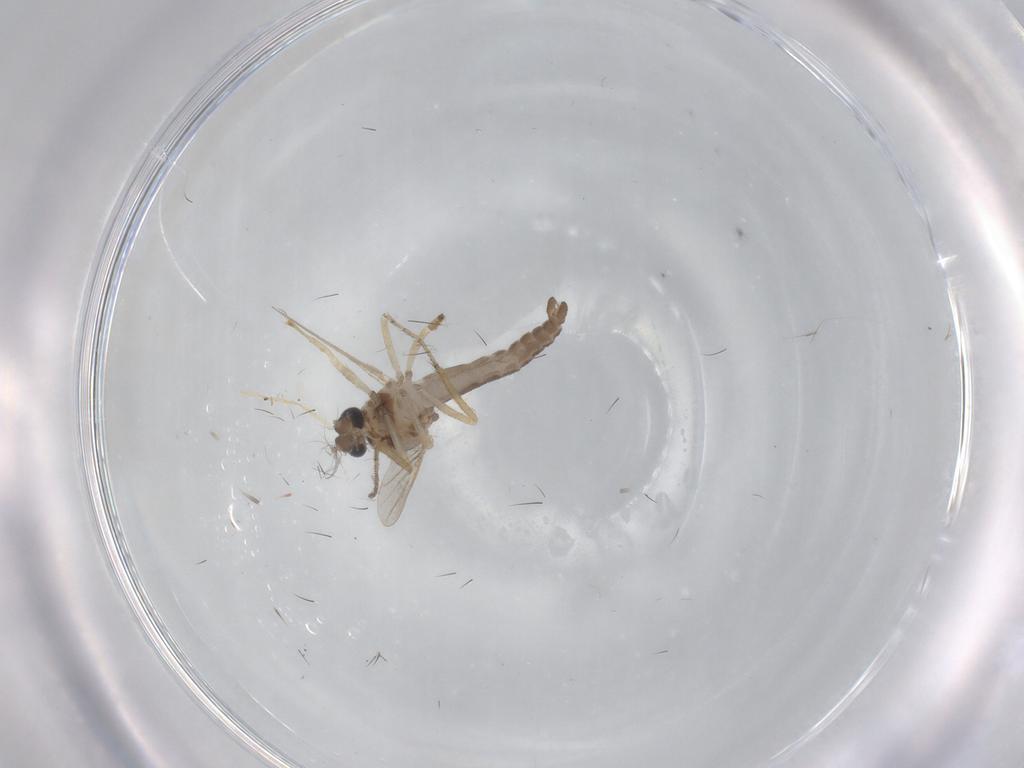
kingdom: Animalia
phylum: Arthropoda
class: Insecta
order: Diptera
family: Ceratopogonidae
